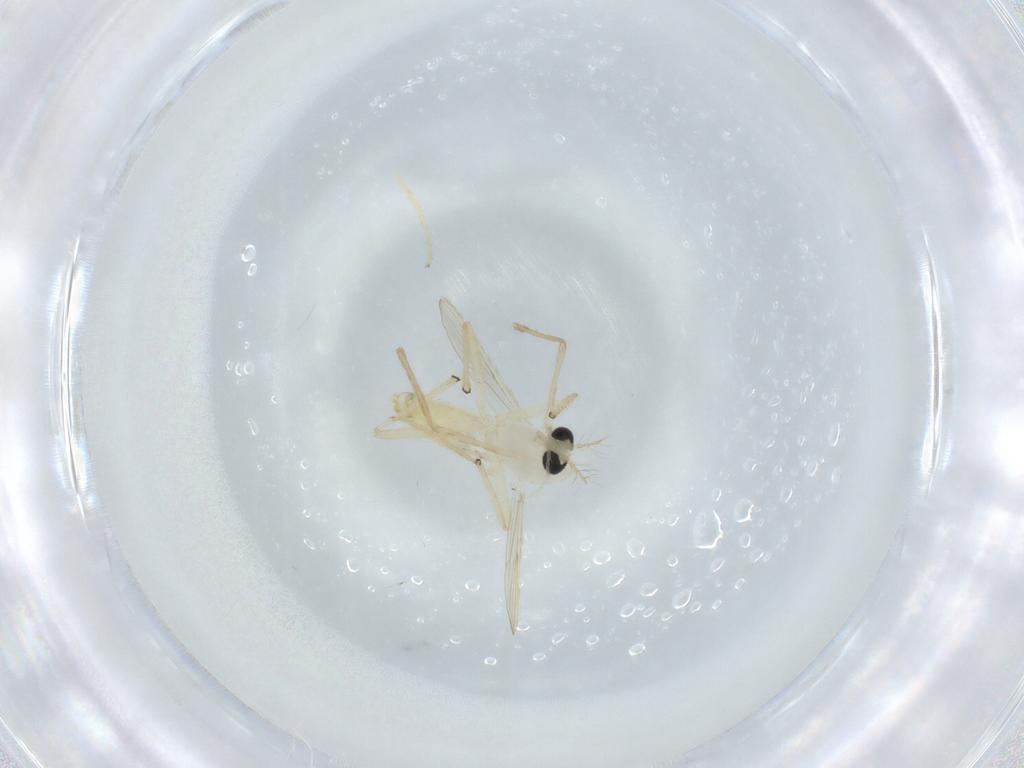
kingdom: Animalia
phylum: Arthropoda
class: Insecta
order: Diptera
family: Chironomidae
